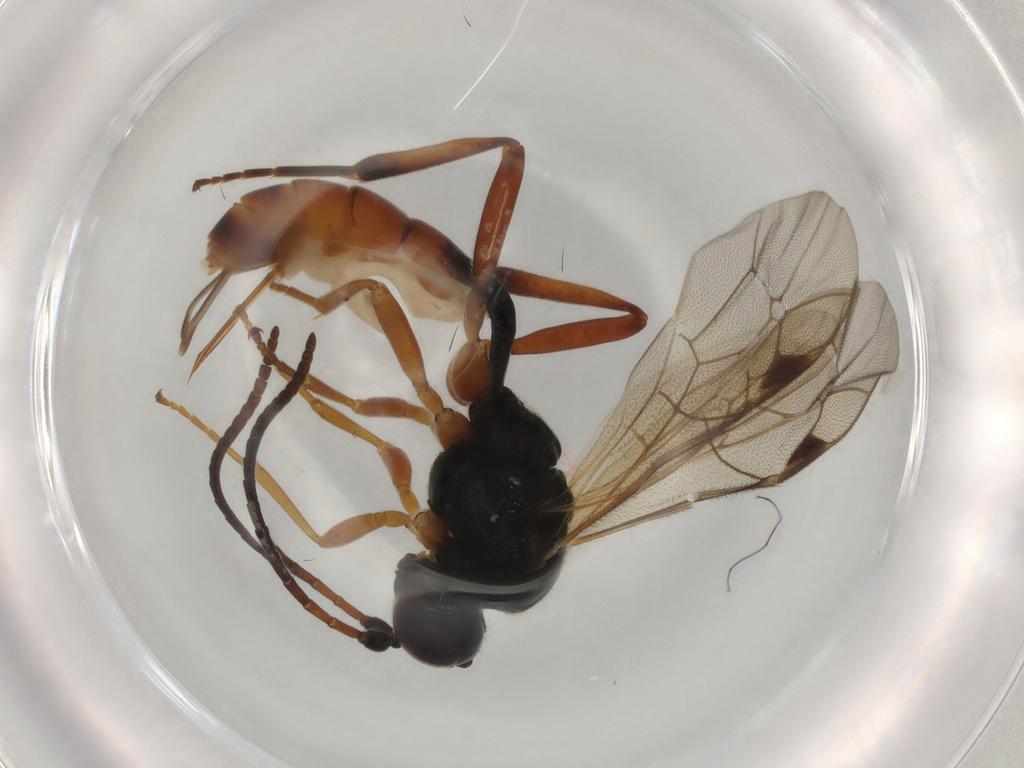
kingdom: Animalia
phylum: Arthropoda
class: Insecta
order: Hymenoptera
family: Ichneumonidae
